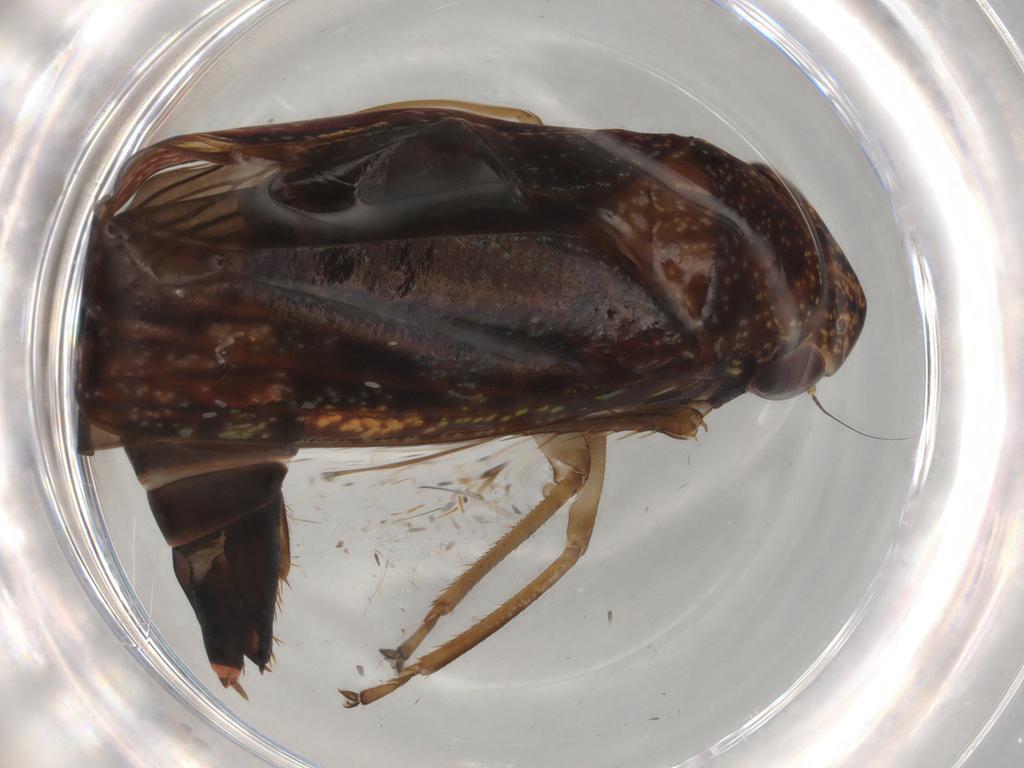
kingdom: Animalia
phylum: Arthropoda
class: Insecta
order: Hemiptera
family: Cicadellidae
